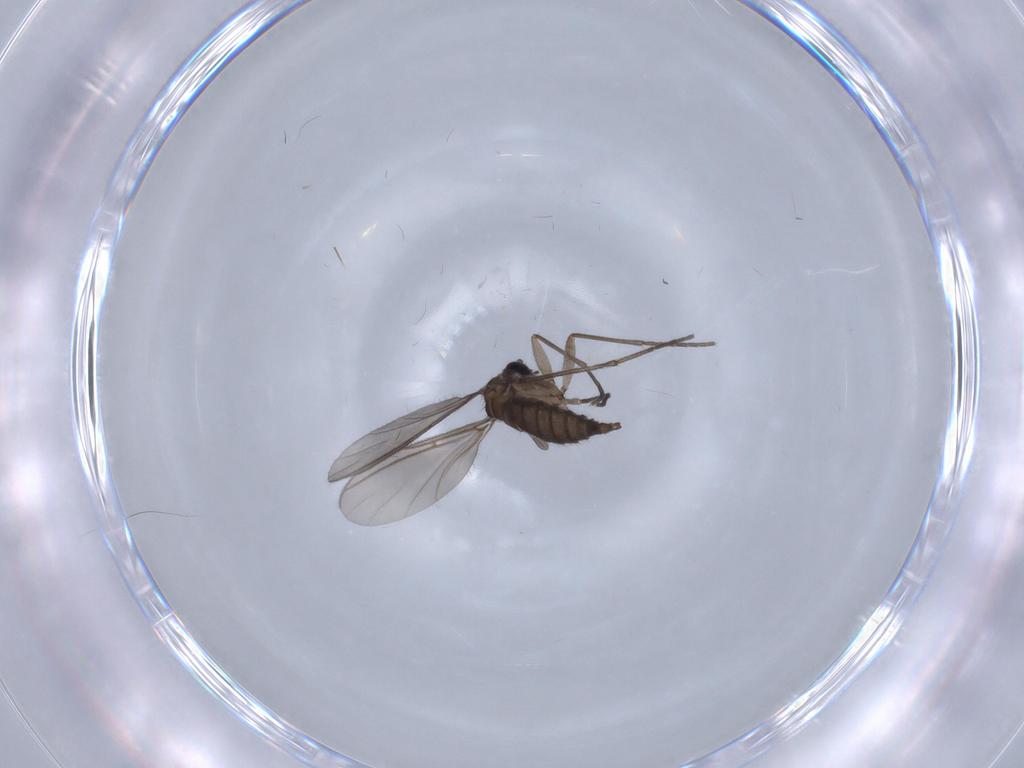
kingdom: Animalia
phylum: Arthropoda
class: Insecta
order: Diptera
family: Sciaridae
